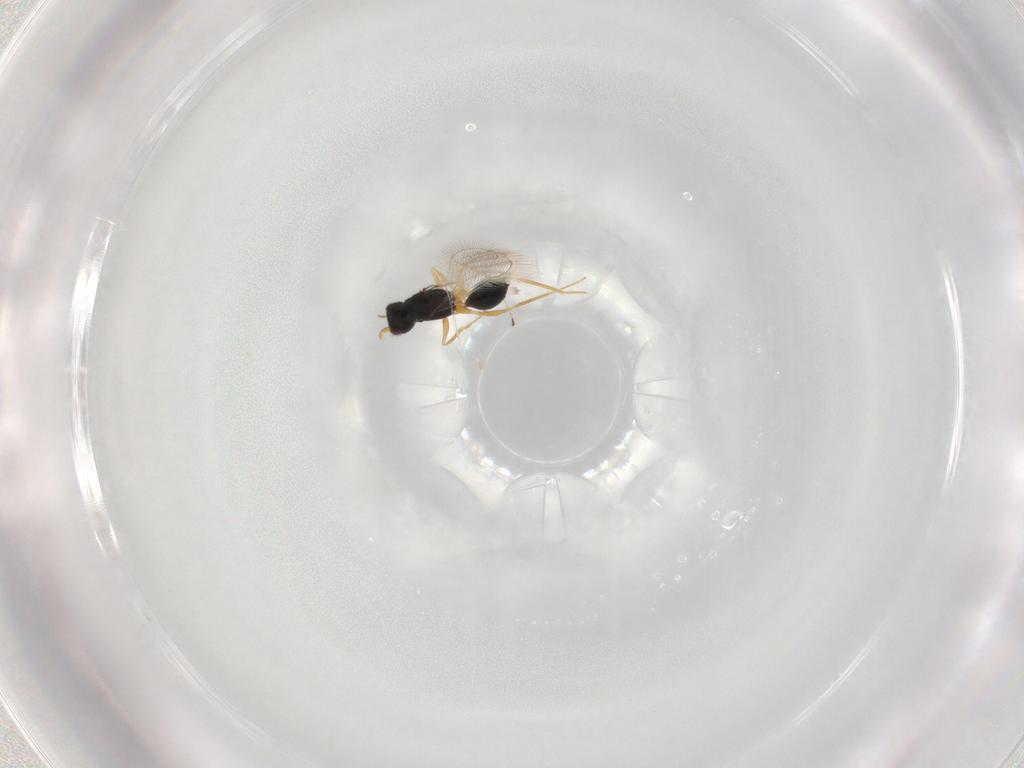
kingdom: Animalia
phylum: Arthropoda
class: Insecta
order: Hymenoptera
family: Mymaridae
